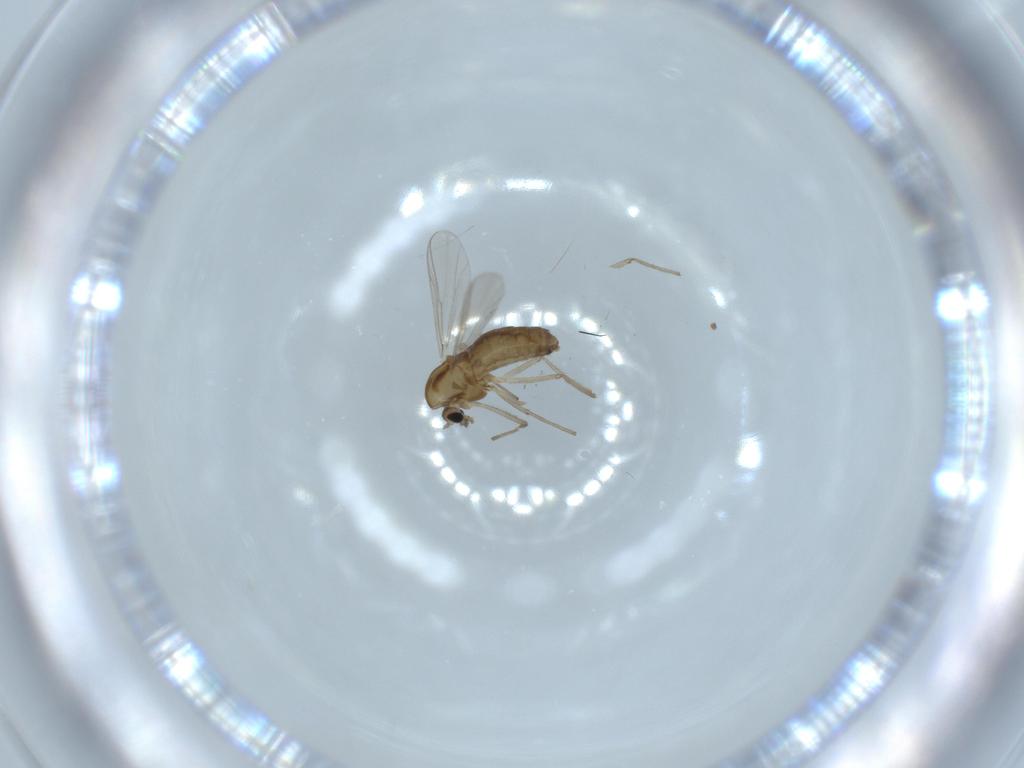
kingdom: Animalia
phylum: Arthropoda
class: Insecta
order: Diptera
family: Chironomidae
